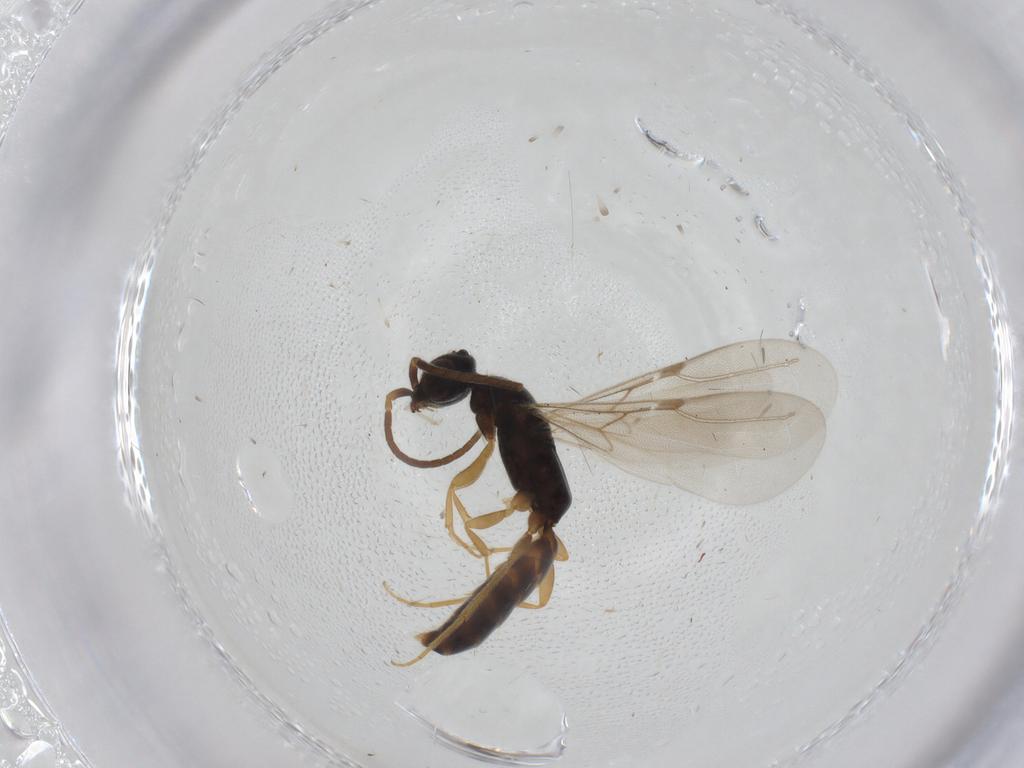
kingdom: Animalia
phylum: Arthropoda
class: Insecta
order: Hymenoptera
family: Bethylidae
